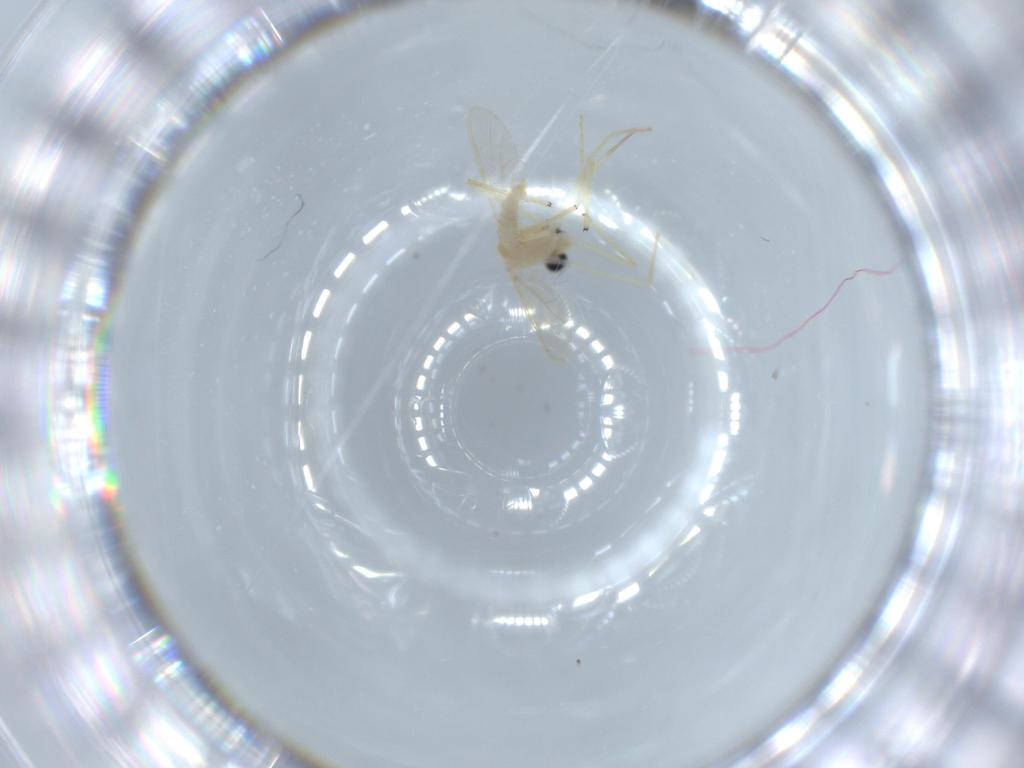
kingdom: Animalia
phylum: Arthropoda
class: Insecta
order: Diptera
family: Chironomidae
